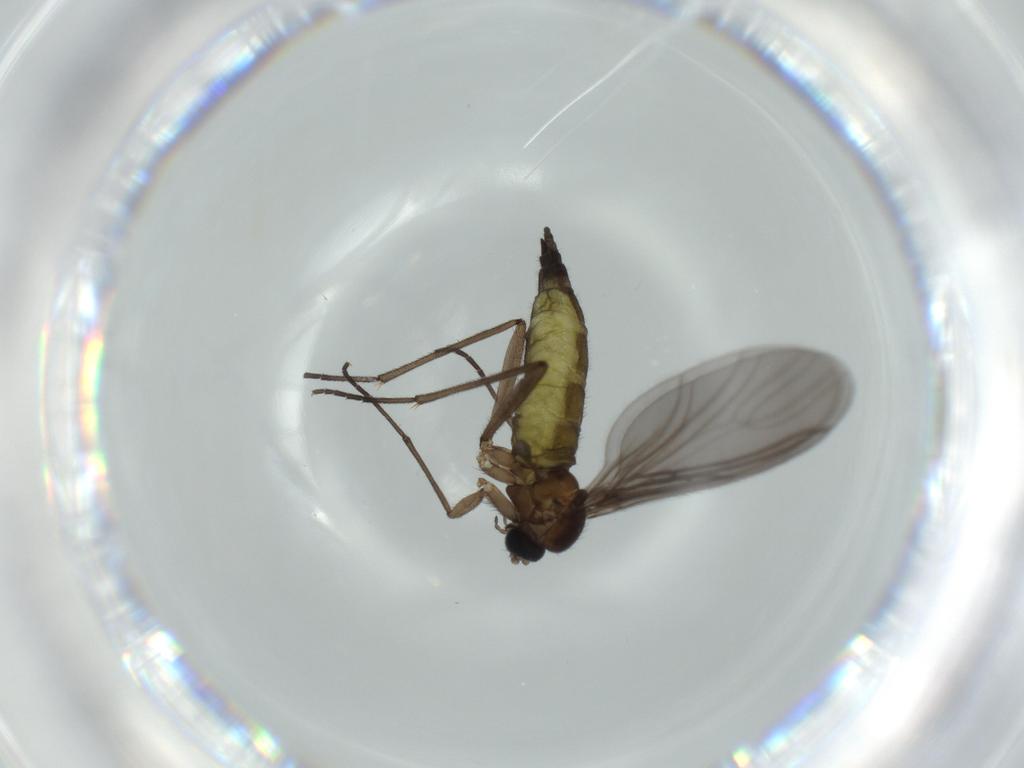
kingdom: Animalia
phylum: Arthropoda
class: Insecta
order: Diptera
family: Sciaridae
